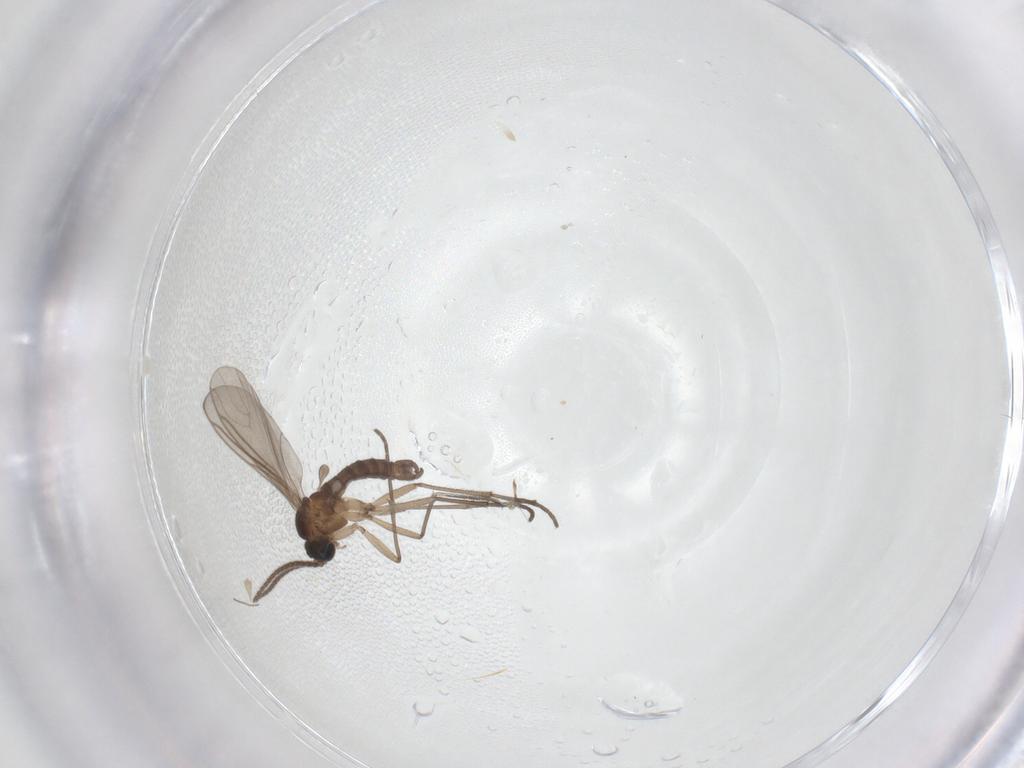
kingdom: Animalia
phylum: Arthropoda
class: Insecta
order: Diptera
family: Sciaridae
